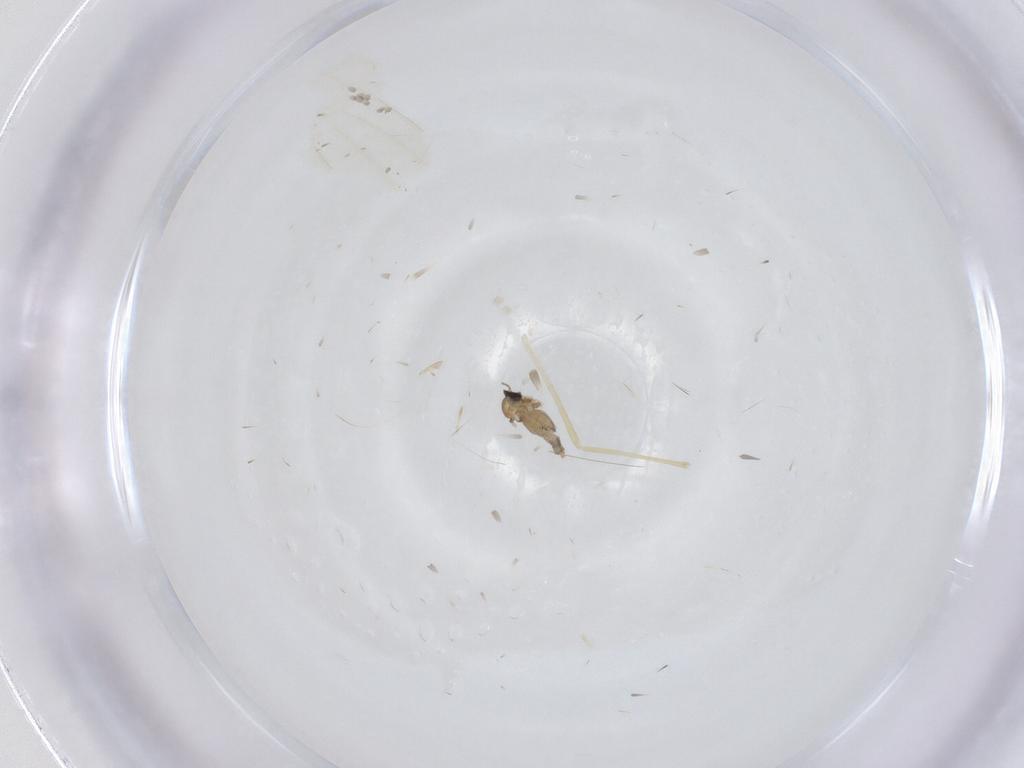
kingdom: Animalia
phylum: Arthropoda
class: Insecta
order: Diptera
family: Cecidomyiidae
